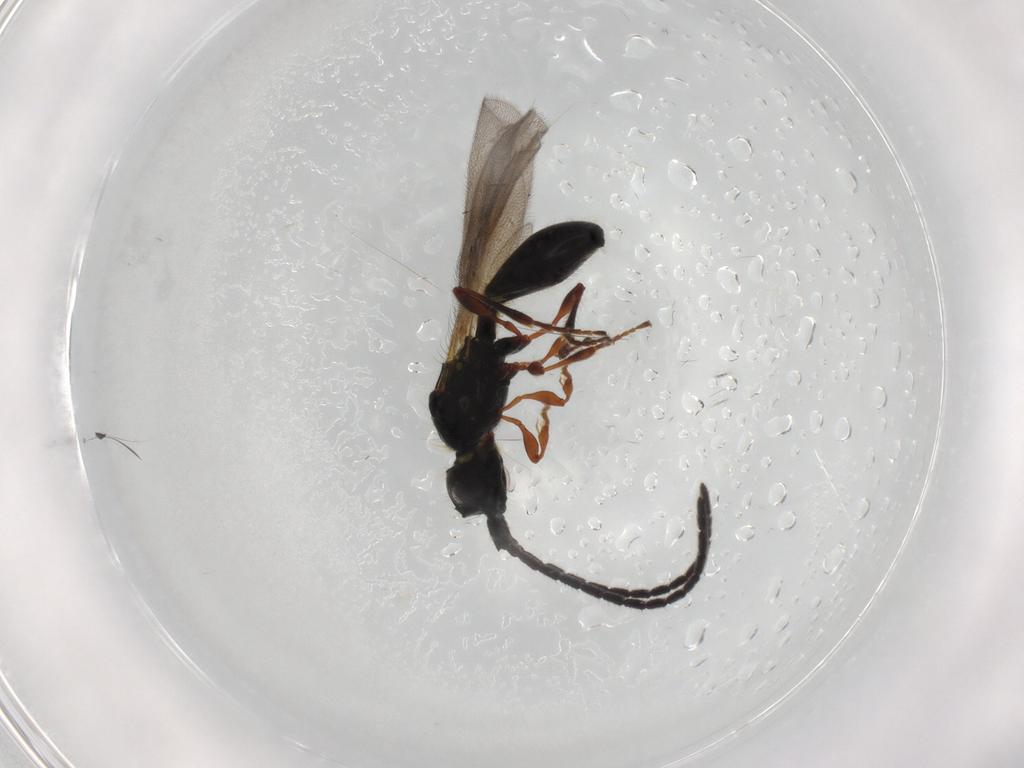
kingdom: Animalia
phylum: Arthropoda
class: Insecta
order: Hymenoptera
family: Diapriidae
